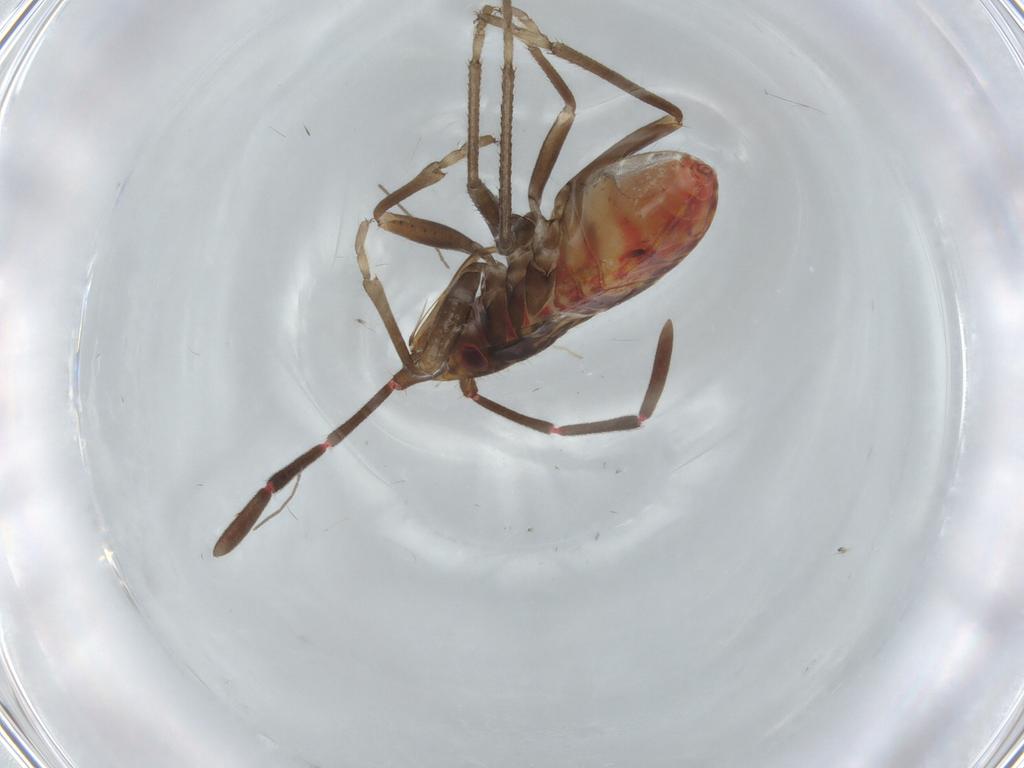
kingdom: Animalia
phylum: Arthropoda
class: Insecta
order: Hemiptera
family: Rhyparochromidae
